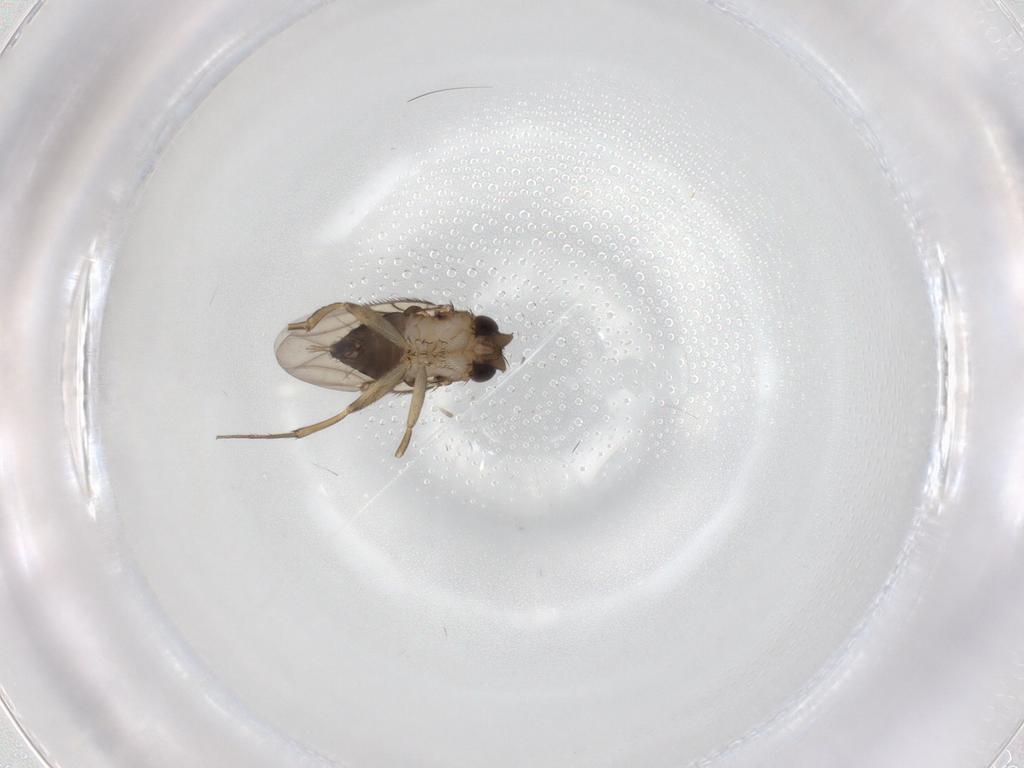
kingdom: Animalia
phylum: Arthropoda
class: Insecta
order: Diptera
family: Phoridae
